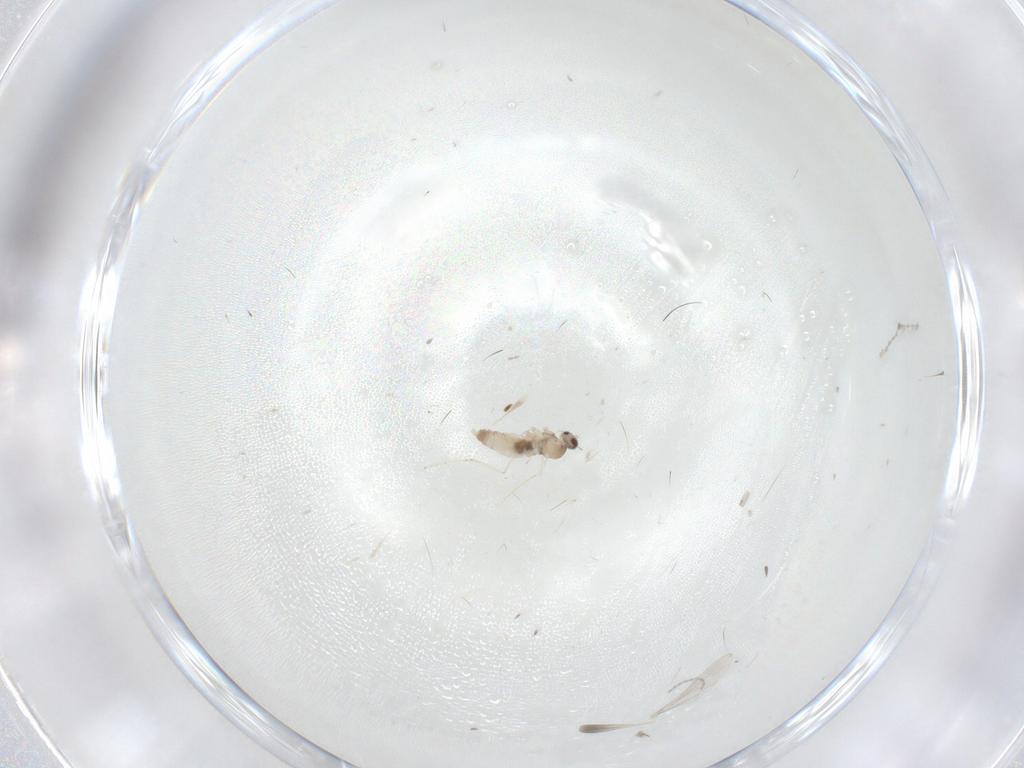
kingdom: Animalia
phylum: Arthropoda
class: Insecta
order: Diptera
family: Cecidomyiidae
